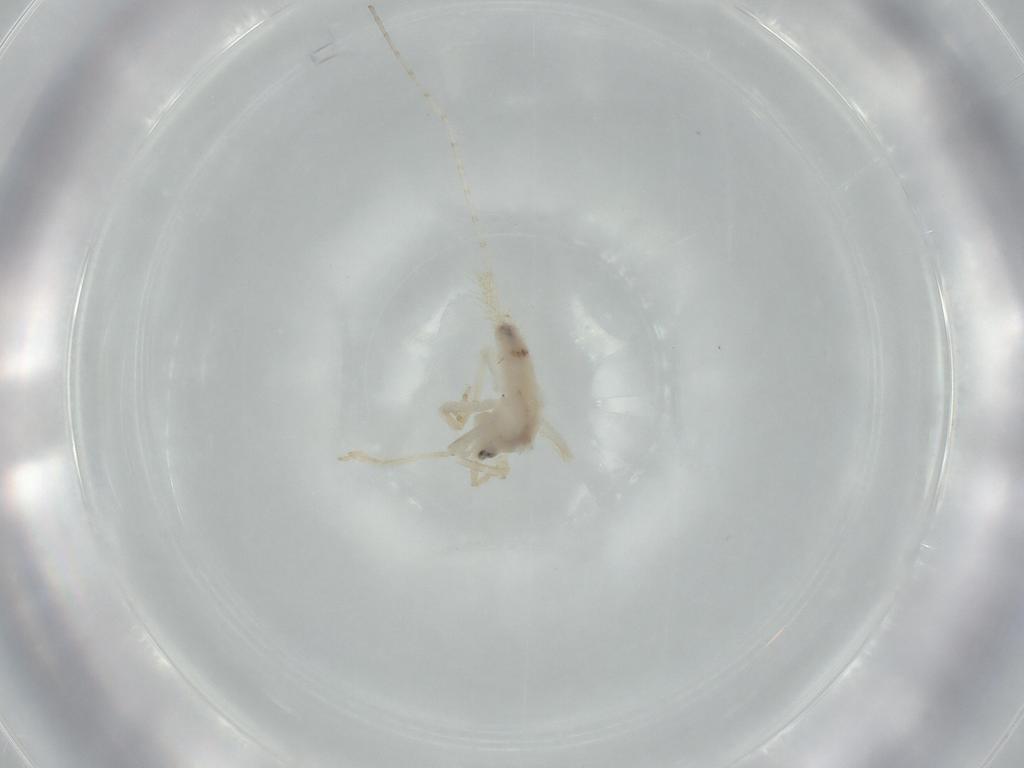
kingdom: Animalia
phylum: Arthropoda
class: Insecta
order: Orthoptera
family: Trigonidiidae
